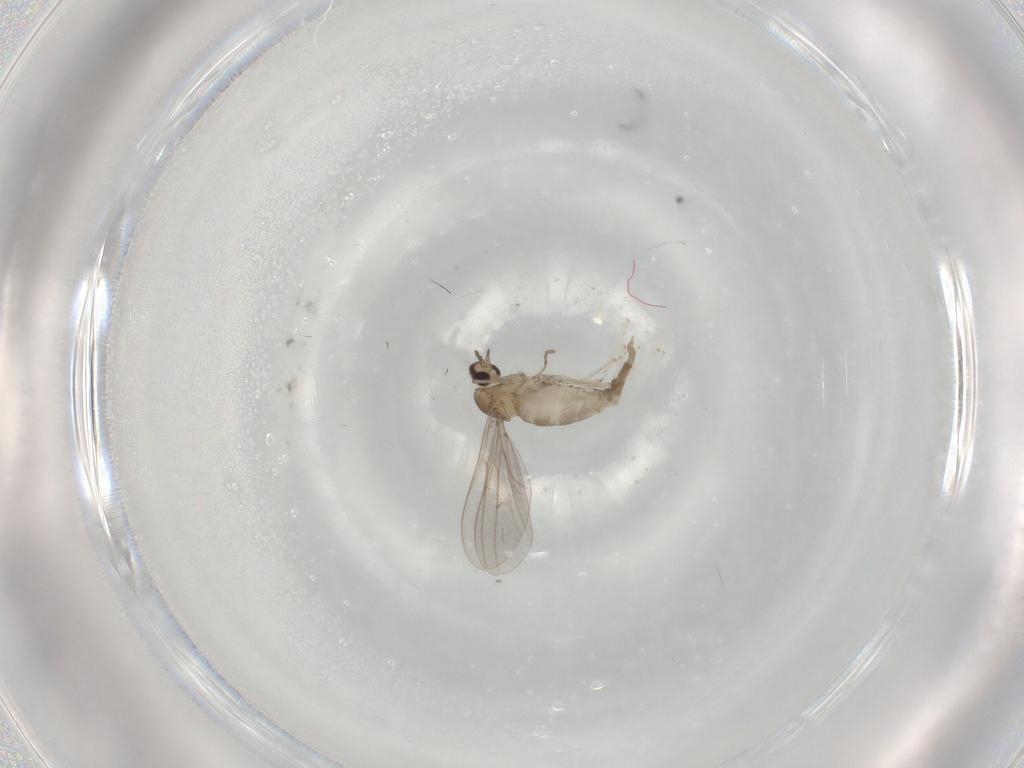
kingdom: Animalia
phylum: Arthropoda
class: Insecta
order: Diptera
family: Cecidomyiidae
